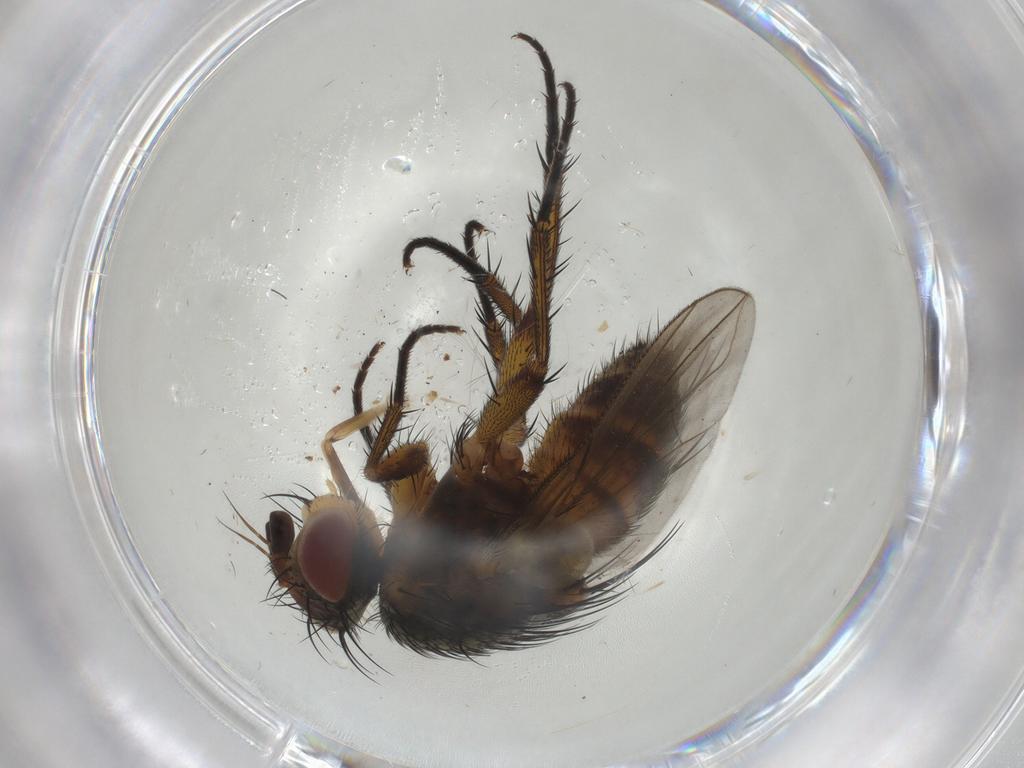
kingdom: Animalia
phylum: Arthropoda
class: Insecta
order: Diptera
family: Tachinidae
